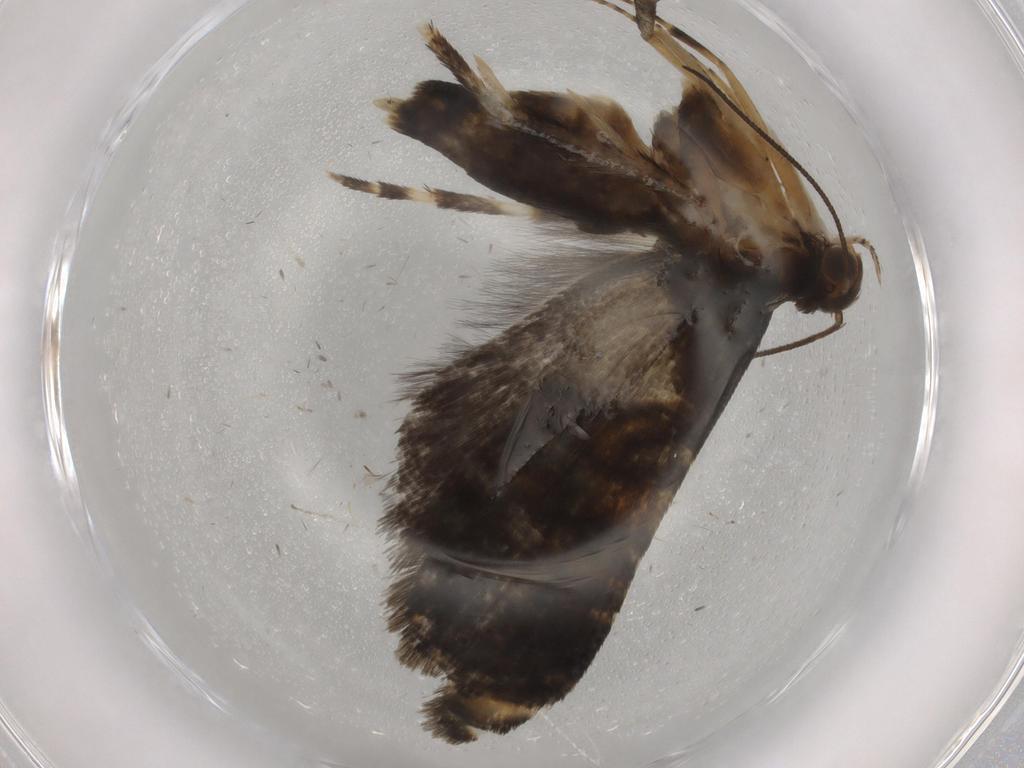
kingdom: Animalia
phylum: Arthropoda
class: Insecta
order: Lepidoptera
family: Glyphipterigidae
